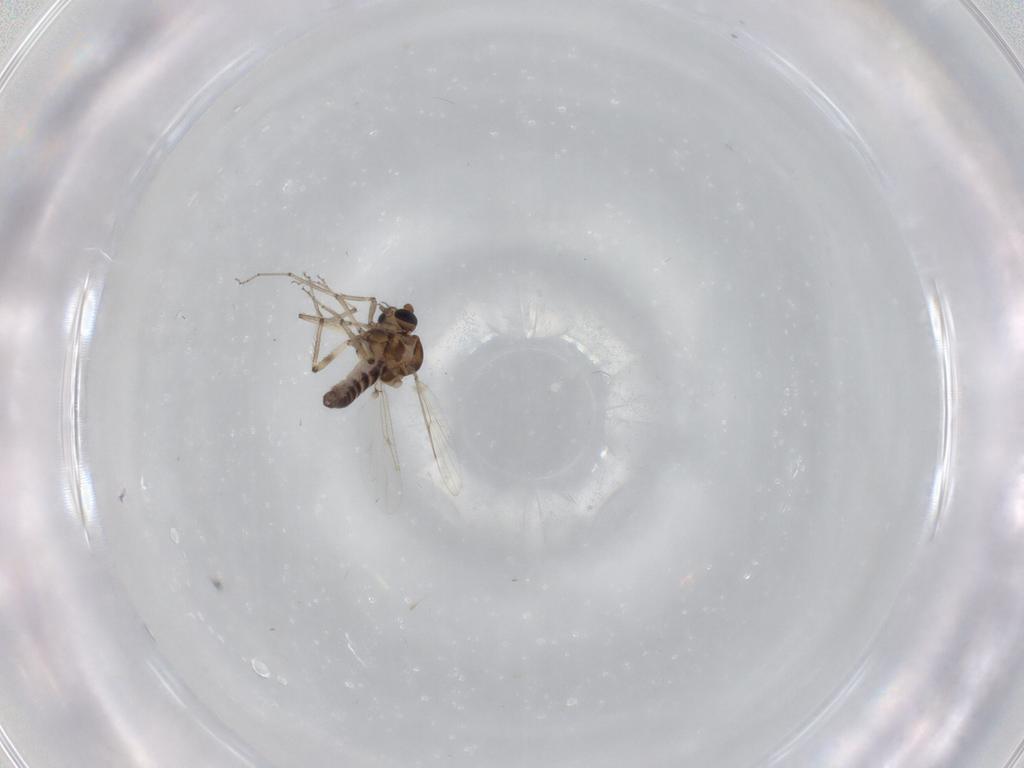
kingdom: Animalia
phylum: Arthropoda
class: Insecta
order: Diptera
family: Ceratopogonidae
